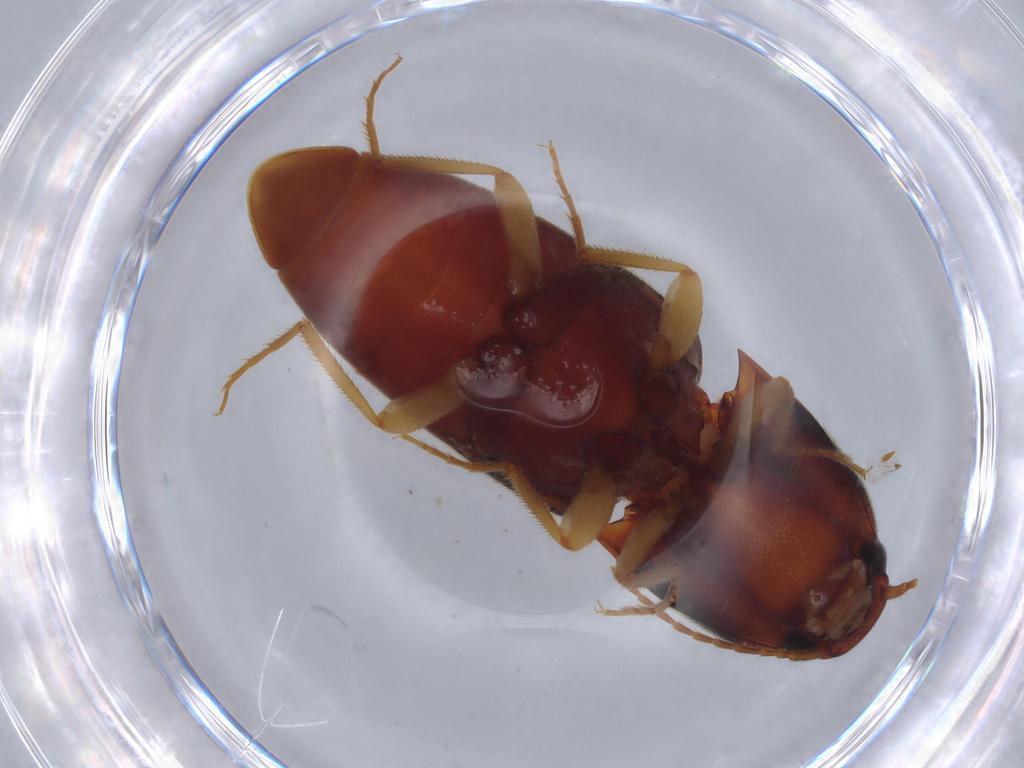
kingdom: Animalia
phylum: Arthropoda
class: Insecta
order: Coleoptera
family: Latridiidae
